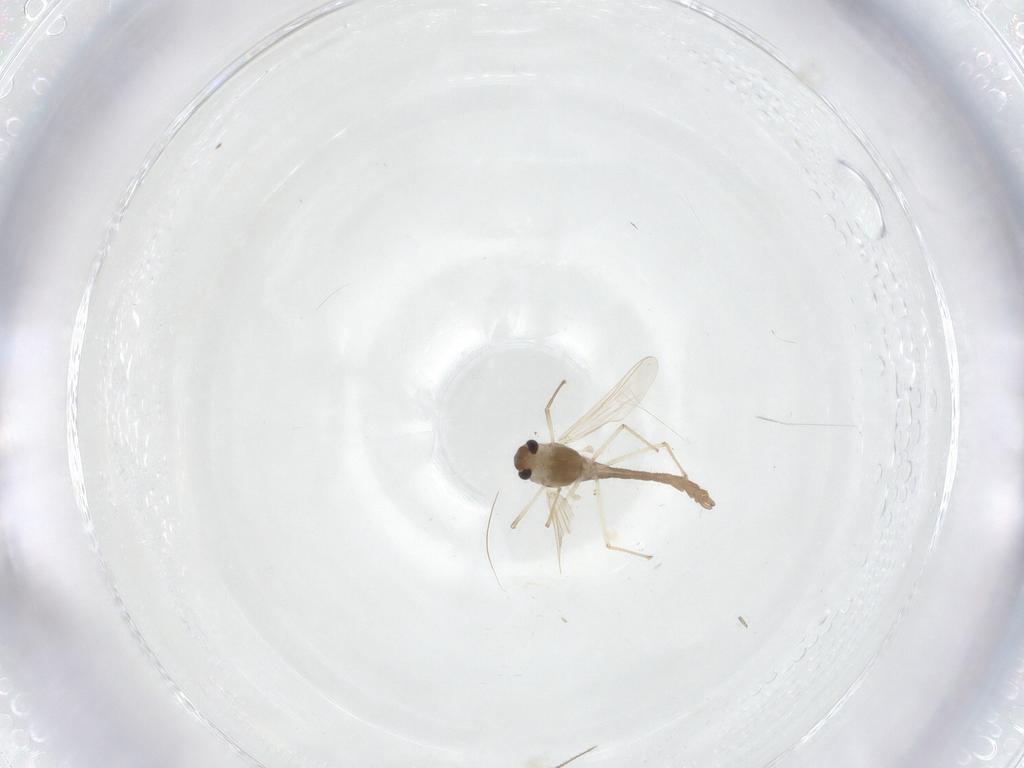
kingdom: Animalia
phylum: Arthropoda
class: Insecta
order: Diptera
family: Chironomidae
